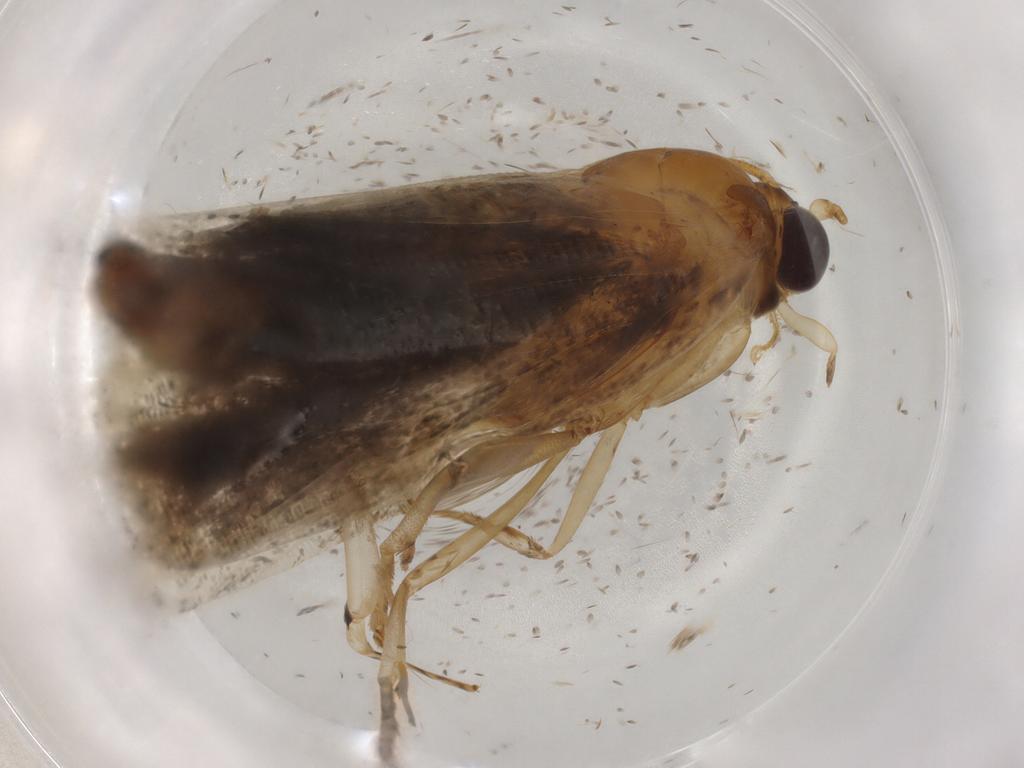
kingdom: Animalia
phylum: Arthropoda
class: Insecta
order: Lepidoptera
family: Tortricidae
